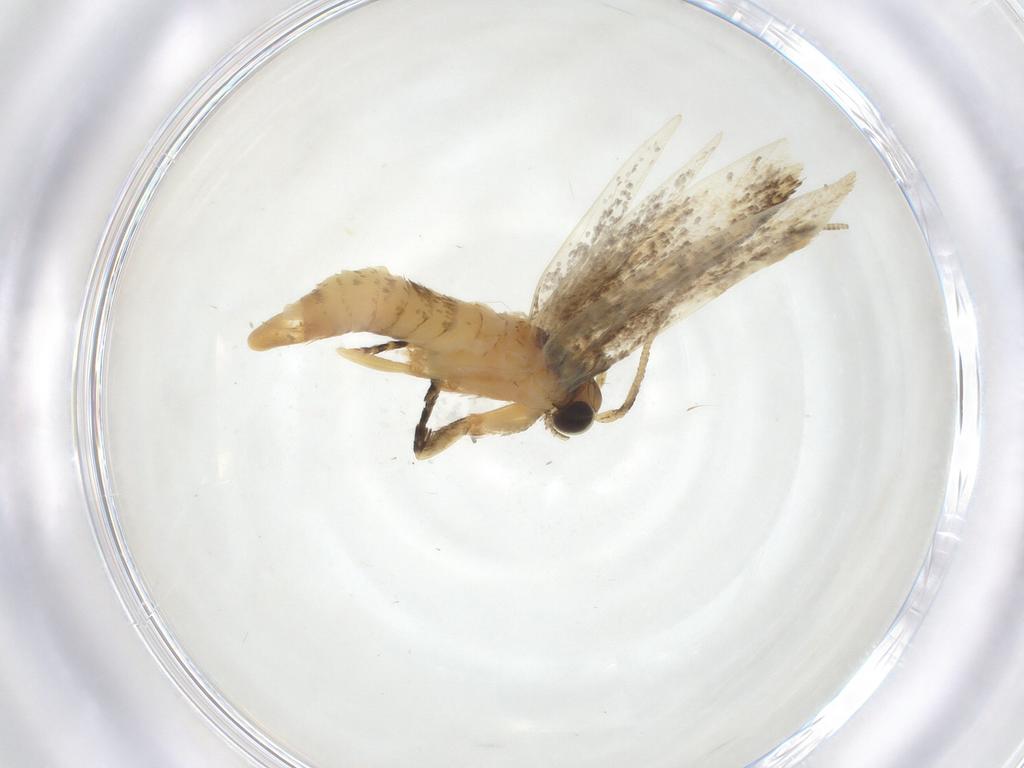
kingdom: Animalia
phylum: Arthropoda
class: Insecta
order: Lepidoptera
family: Tineidae
